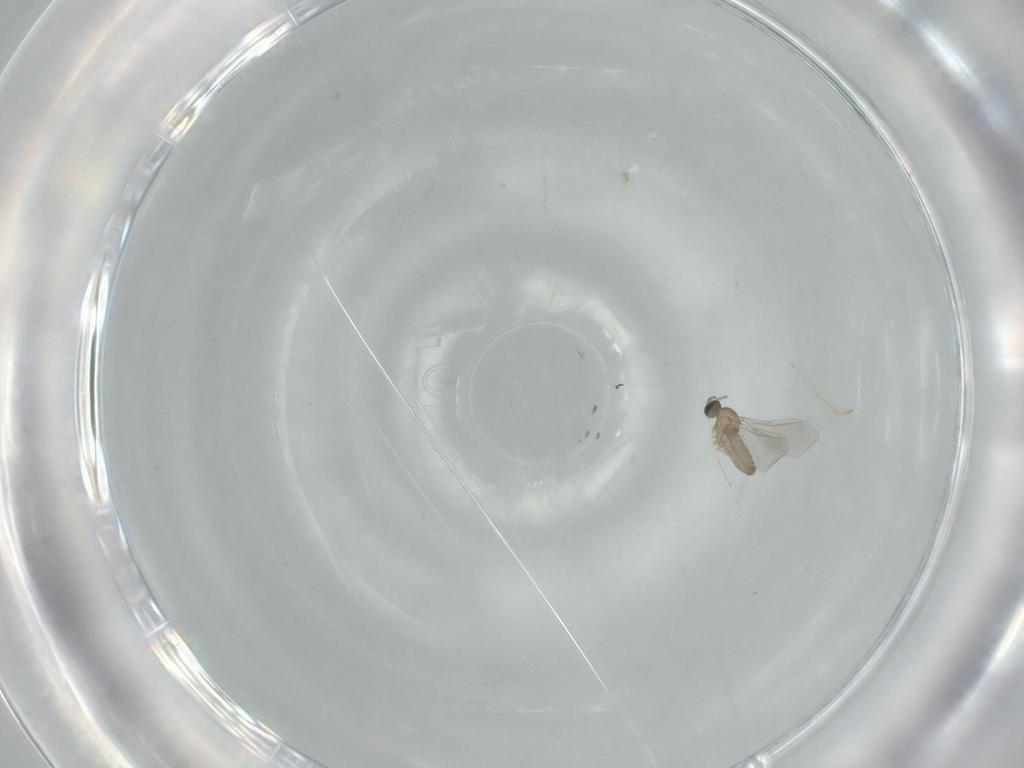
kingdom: Animalia
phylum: Arthropoda
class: Insecta
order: Diptera
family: Chironomidae
